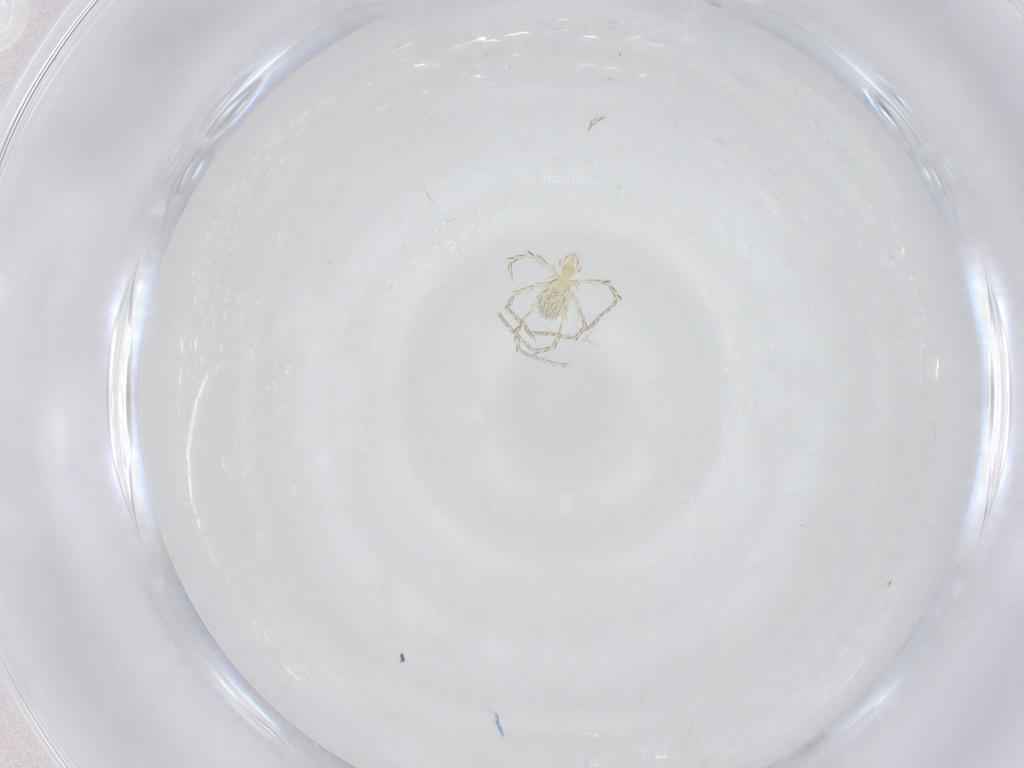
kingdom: Animalia
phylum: Arthropoda
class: Arachnida
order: Trombidiformes
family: Erythraeidae
